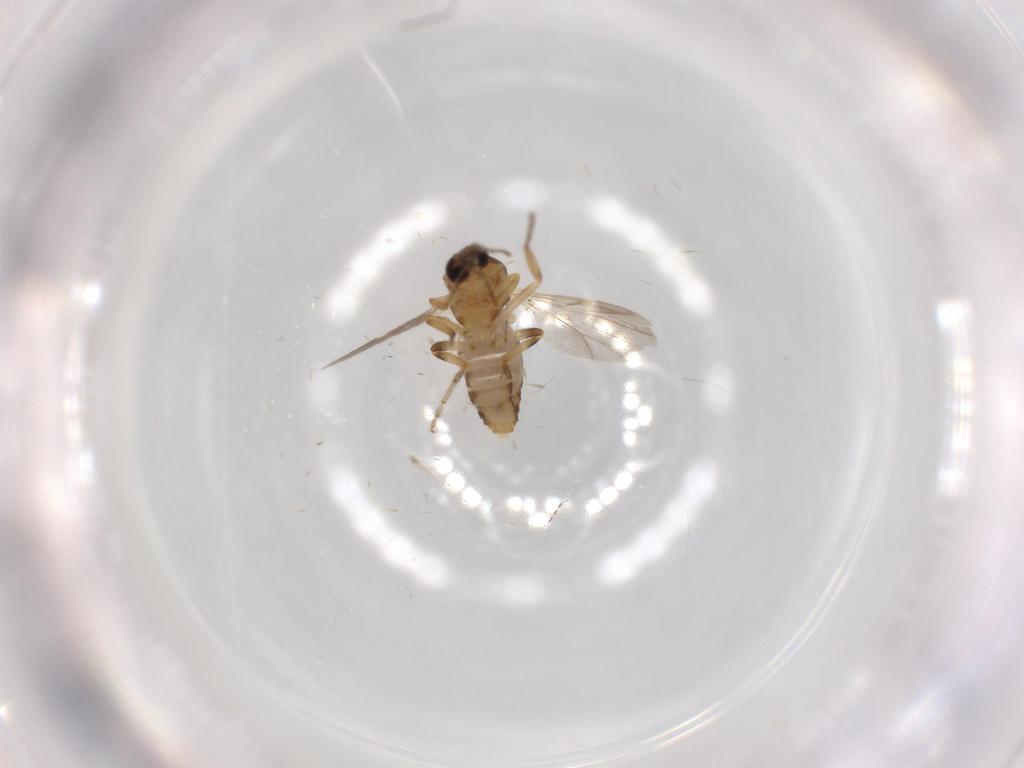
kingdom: Animalia
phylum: Arthropoda
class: Insecta
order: Diptera
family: Ceratopogonidae
